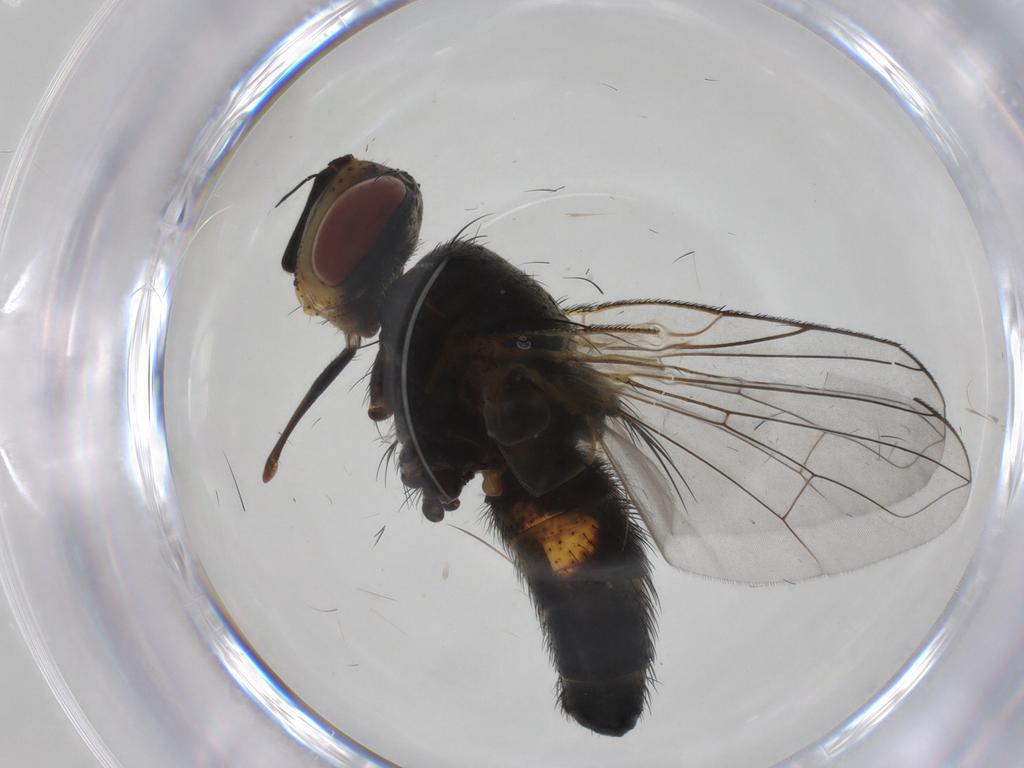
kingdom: Animalia
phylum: Arthropoda
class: Insecta
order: Diptera
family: Tachinidae
